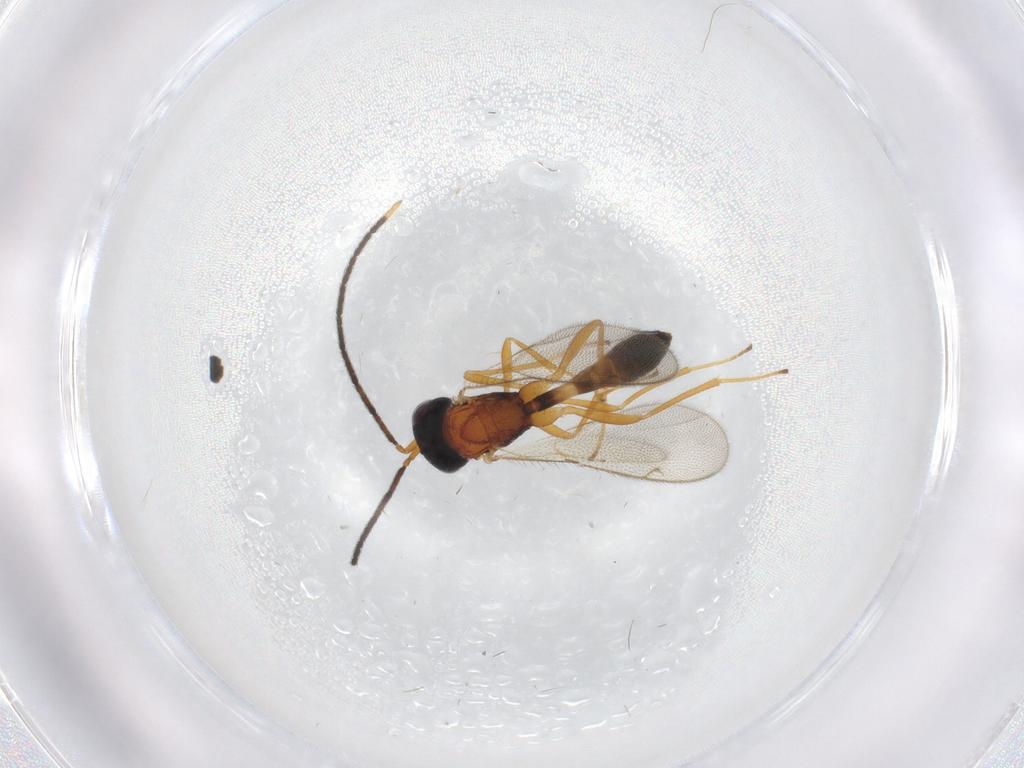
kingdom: Animalia
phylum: Arthropoda
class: Insecta
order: Hymenoptera
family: Pteromalidae
